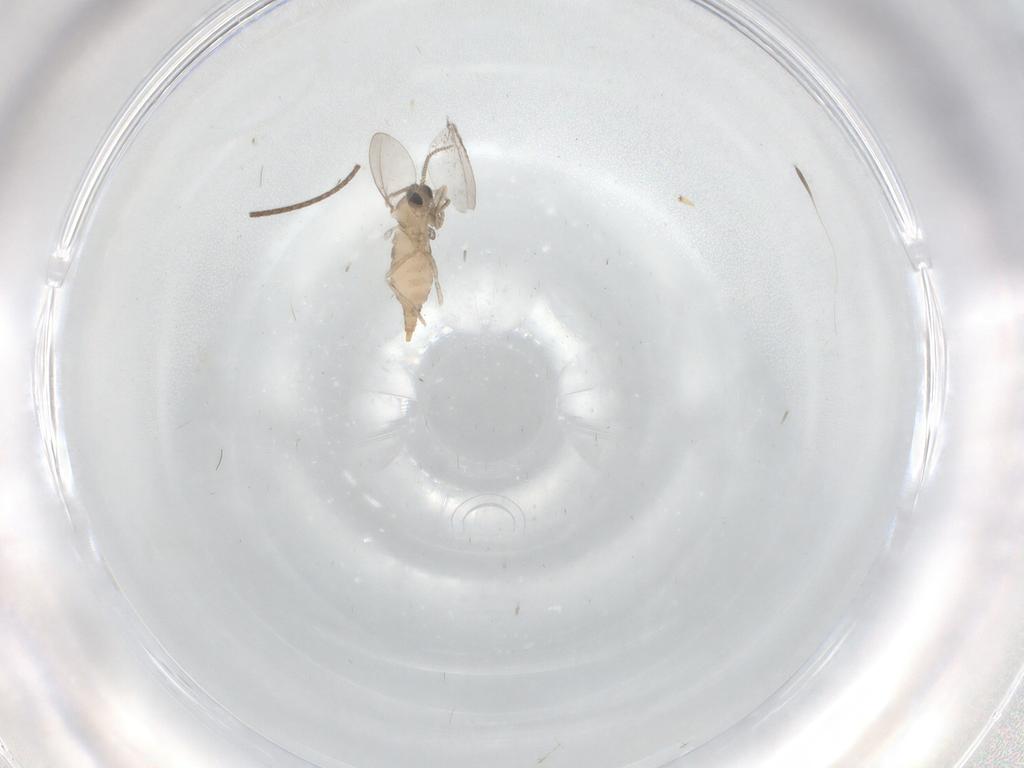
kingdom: Animalia
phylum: Arthropoda
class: Insecta
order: Diptera
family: Cecidomyiidae
